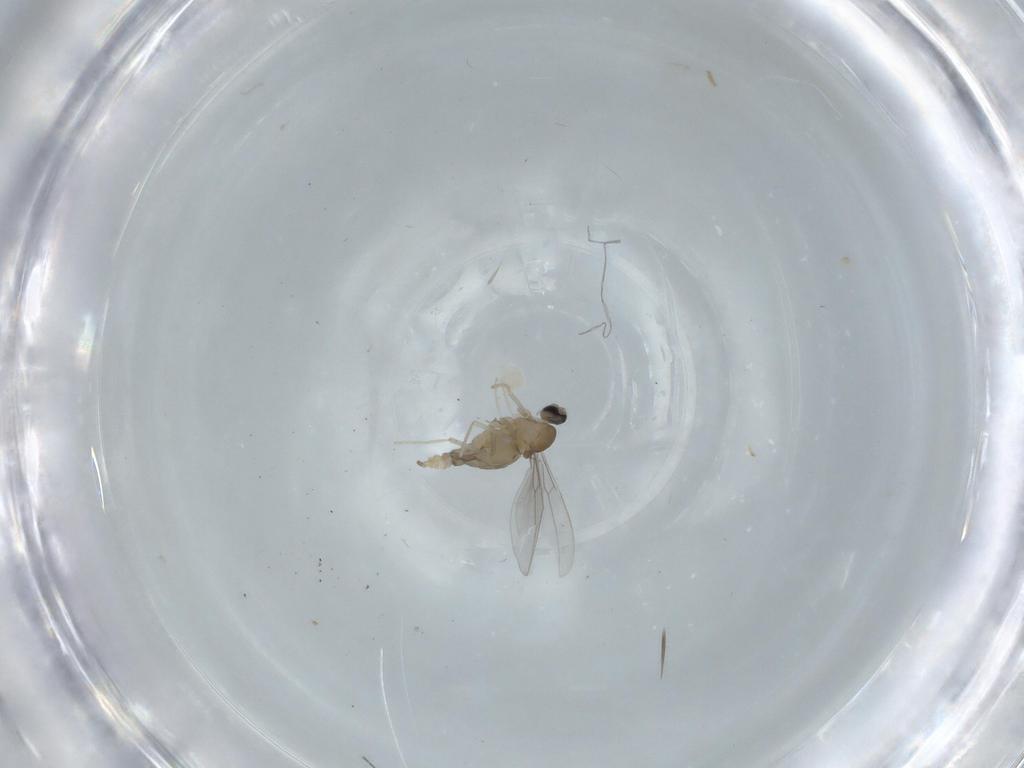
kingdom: Animalia
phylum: Arthropoda
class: Insecta
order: Diptera
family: Cecidomyiidae
